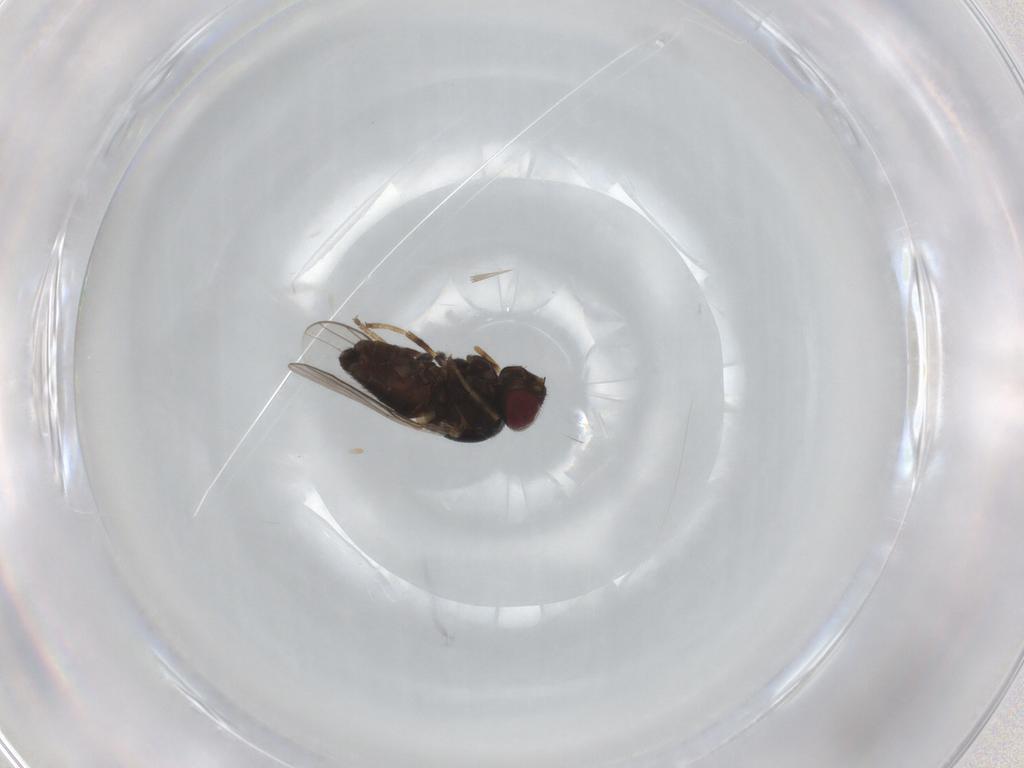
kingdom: Animalia
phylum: Arthropoda
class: Insecta
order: Diptera
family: Chloropidae
